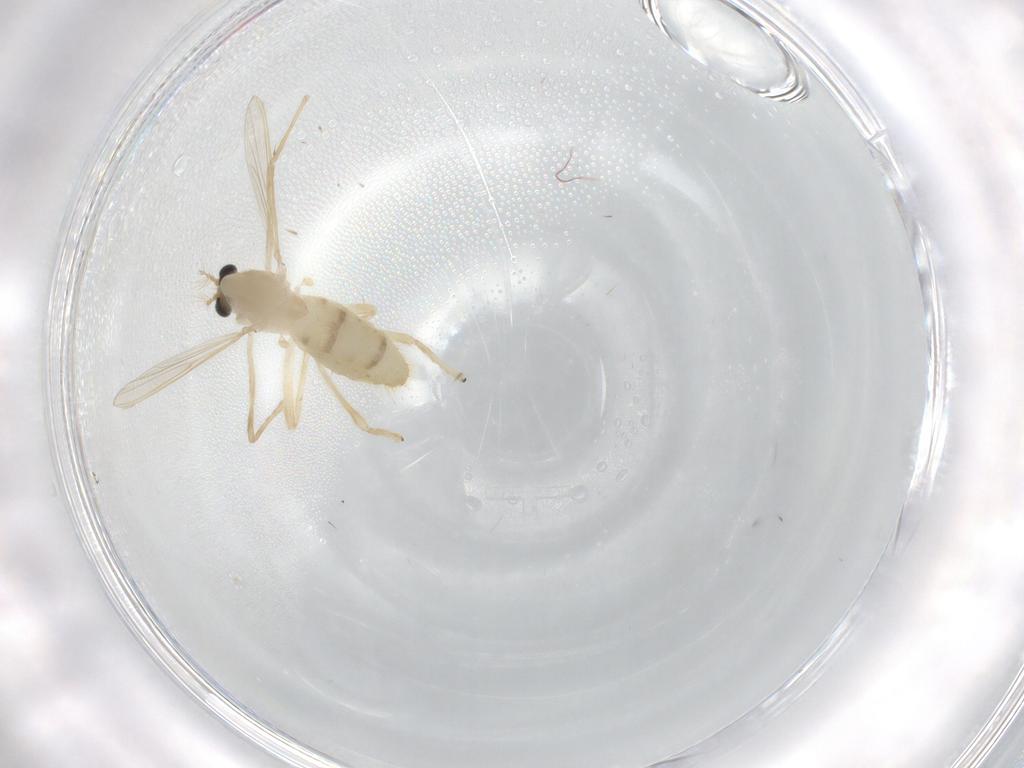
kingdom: Animalia
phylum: Arthropoda
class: Insecta
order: Diptera
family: Chironomidae
